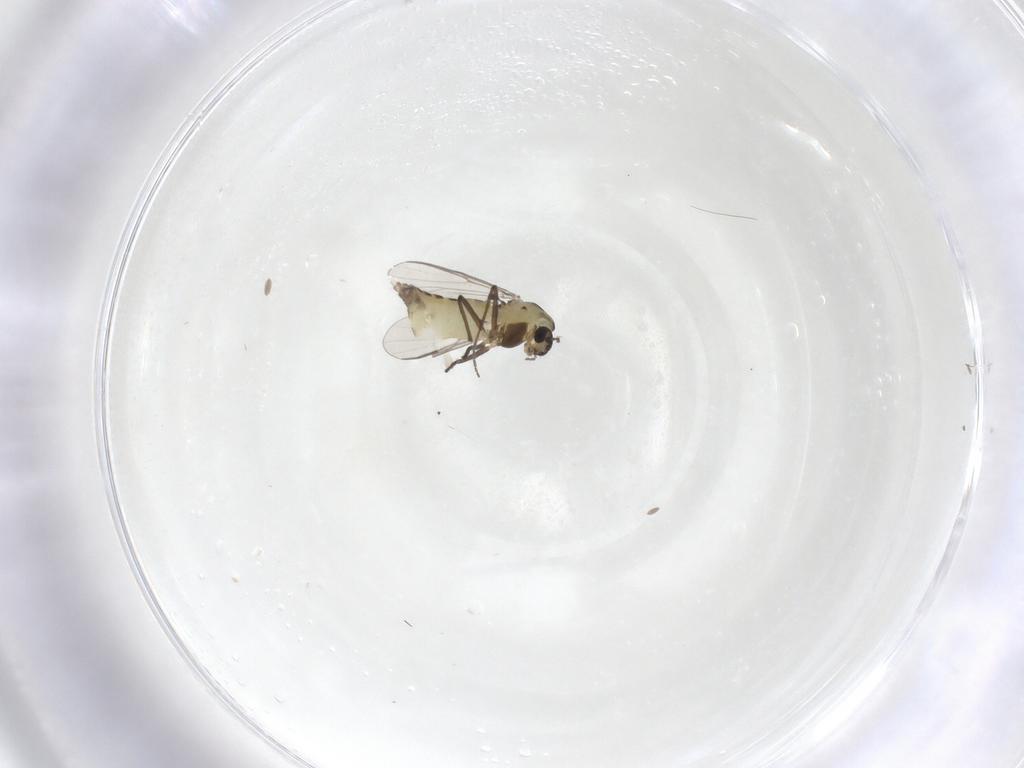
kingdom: Animalia
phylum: Arthropoda
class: Insecta
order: Diptera
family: Chironomidae
